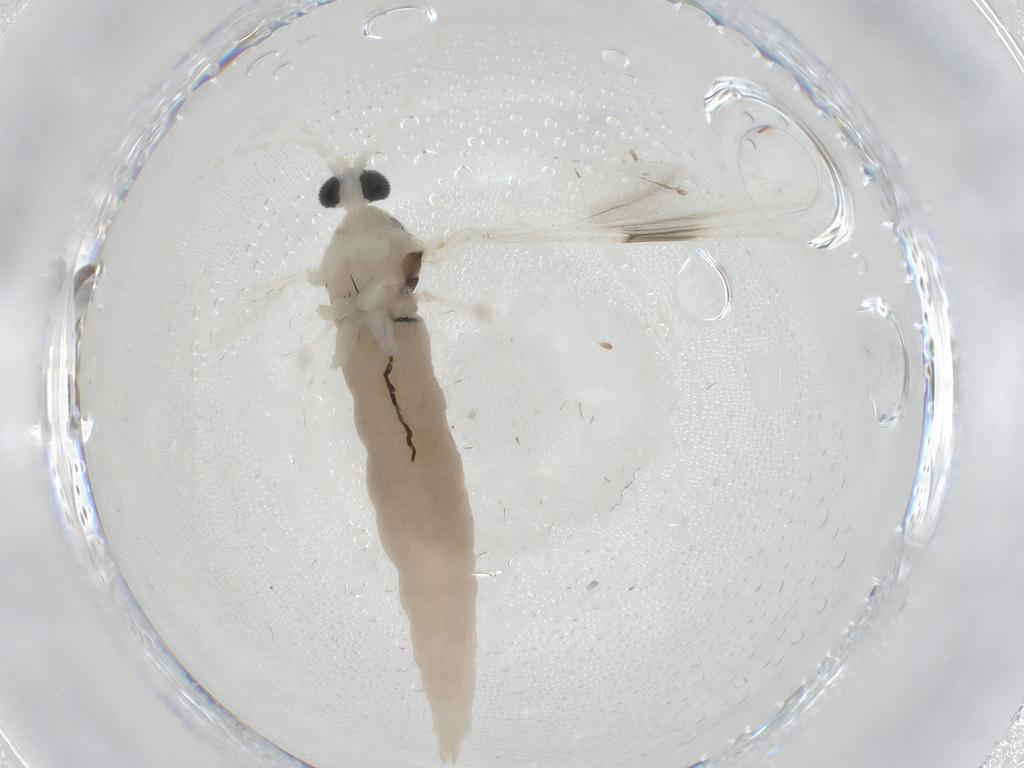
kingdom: Animalia
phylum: Arthropoda
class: Insecta
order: Diptera
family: Cecidomyiidae
